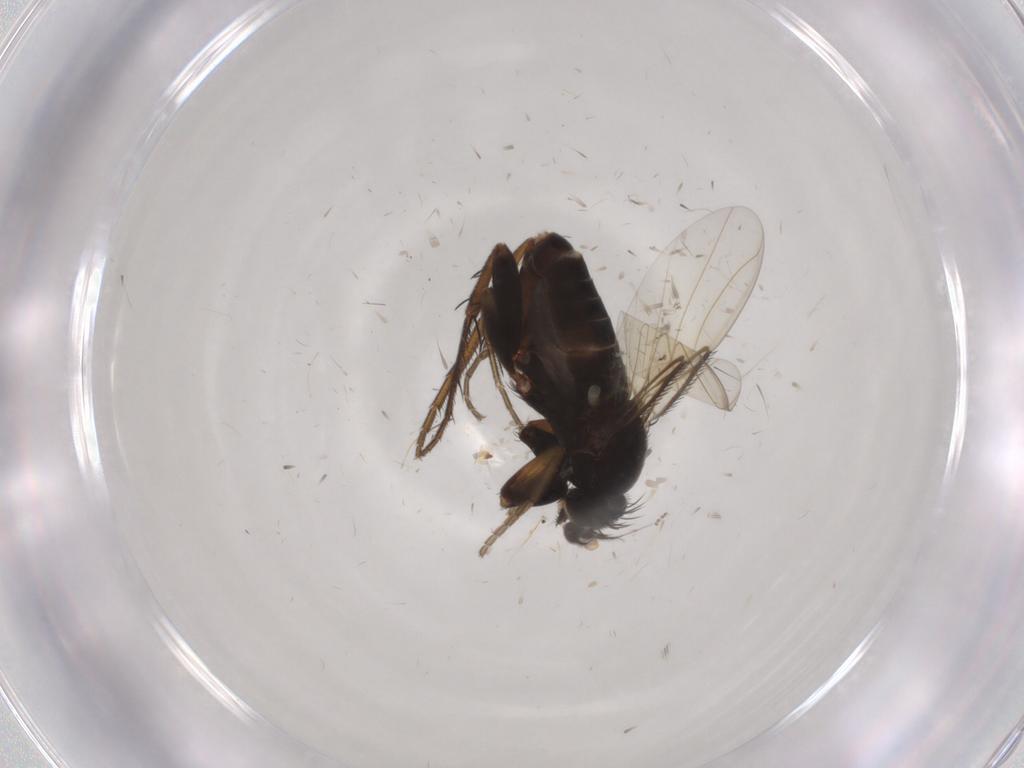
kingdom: Animalia
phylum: Arthropoda
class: Insecta
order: Diptera
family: Phoridae
